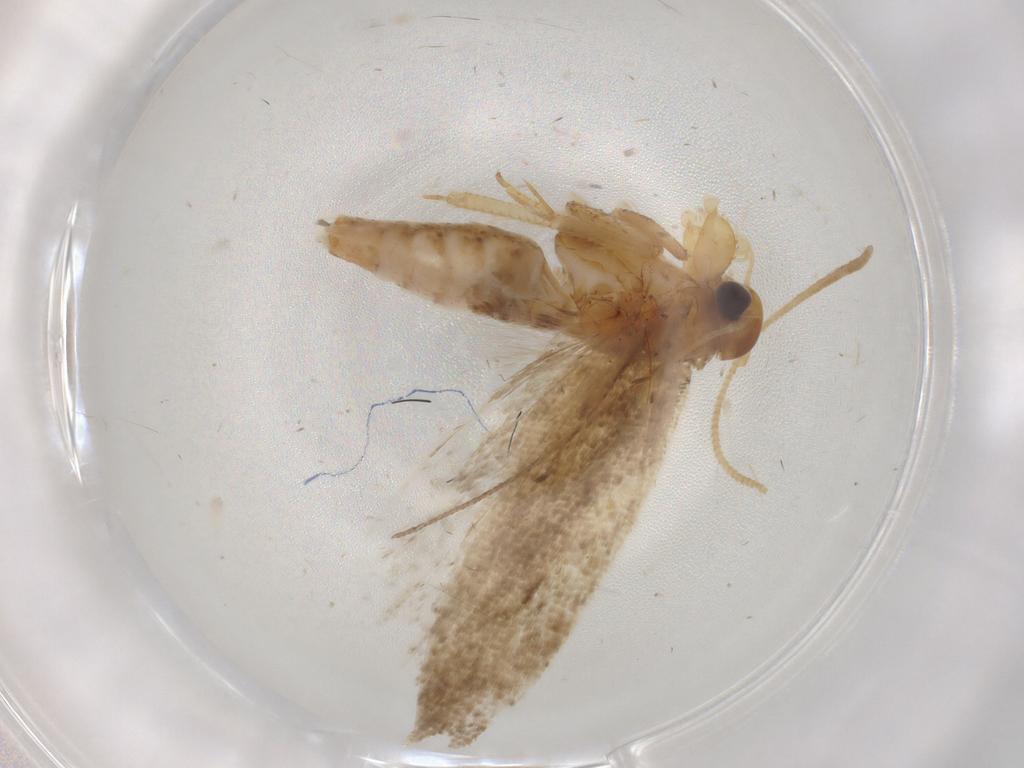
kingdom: Animalia
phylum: Arthropoda
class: Insecta
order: Lepidoptera
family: Gelechiidae
